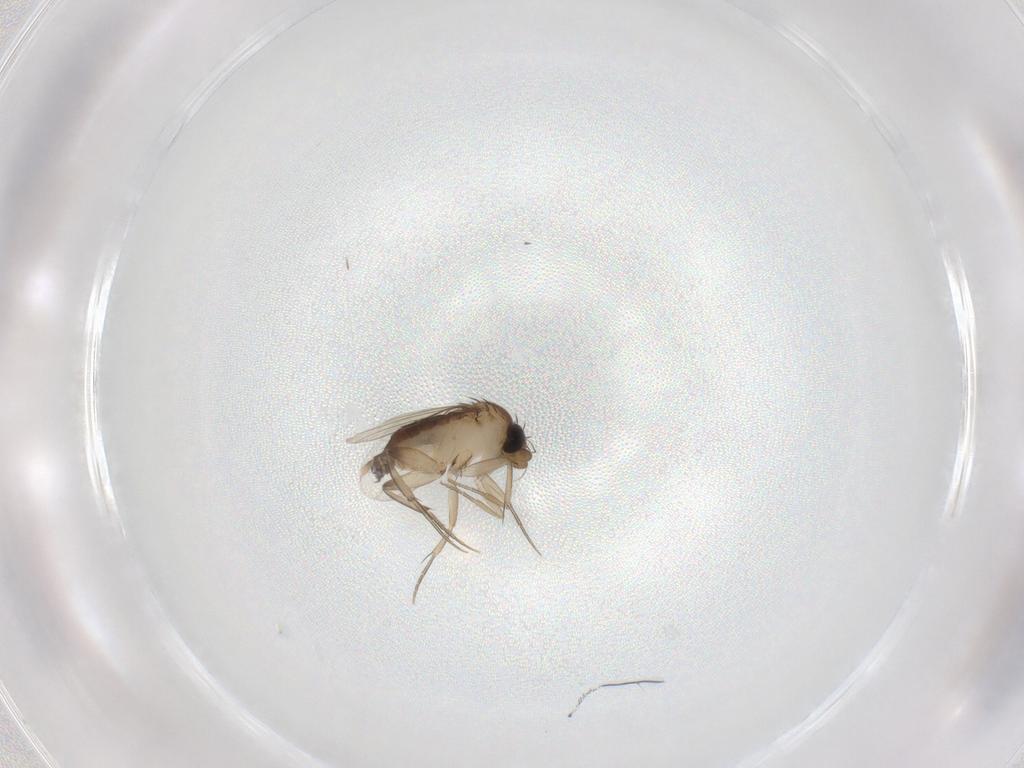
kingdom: Animalia
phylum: Arthropoda
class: Insecta
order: Diptera
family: Phoridae
